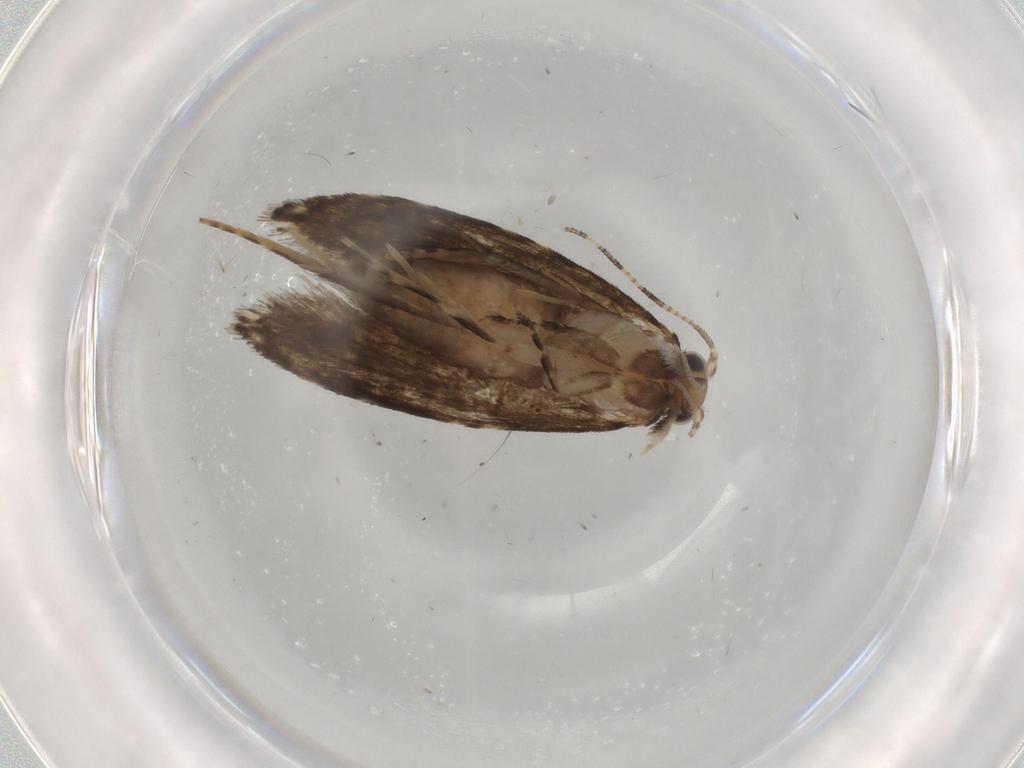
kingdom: Animalia
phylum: Arthropoda
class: Insecta
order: Lepidoptera
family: Tineidae
